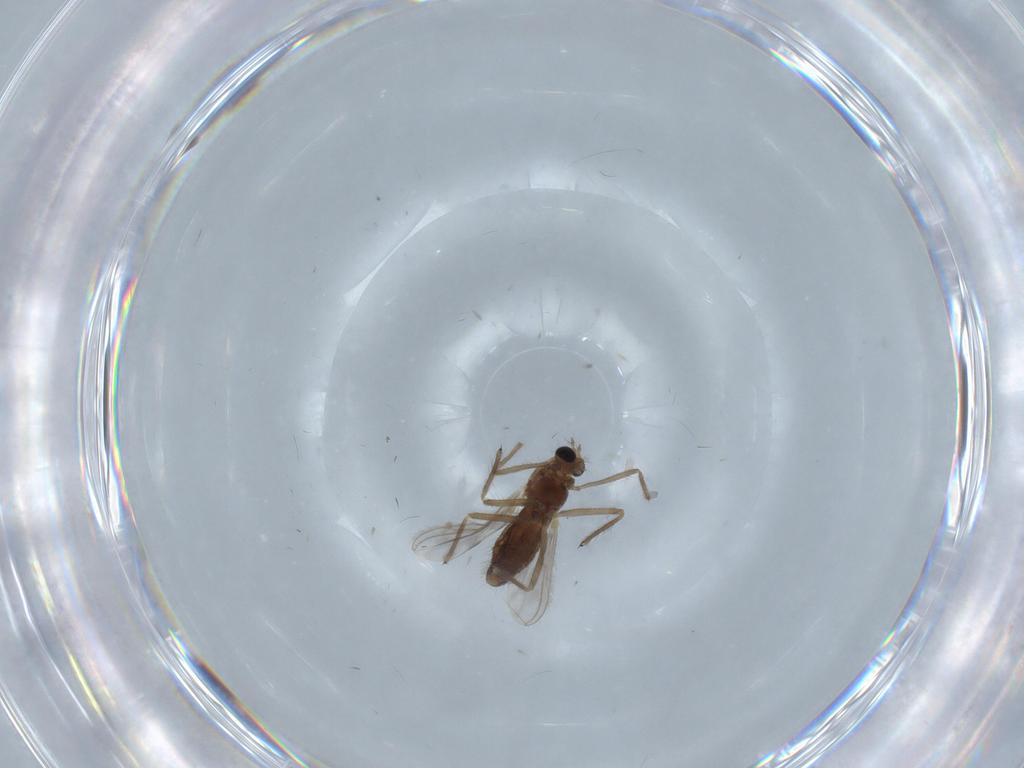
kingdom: Animalia
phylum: Arthropoda
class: Insecta
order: Diptera
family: Chironomidae
